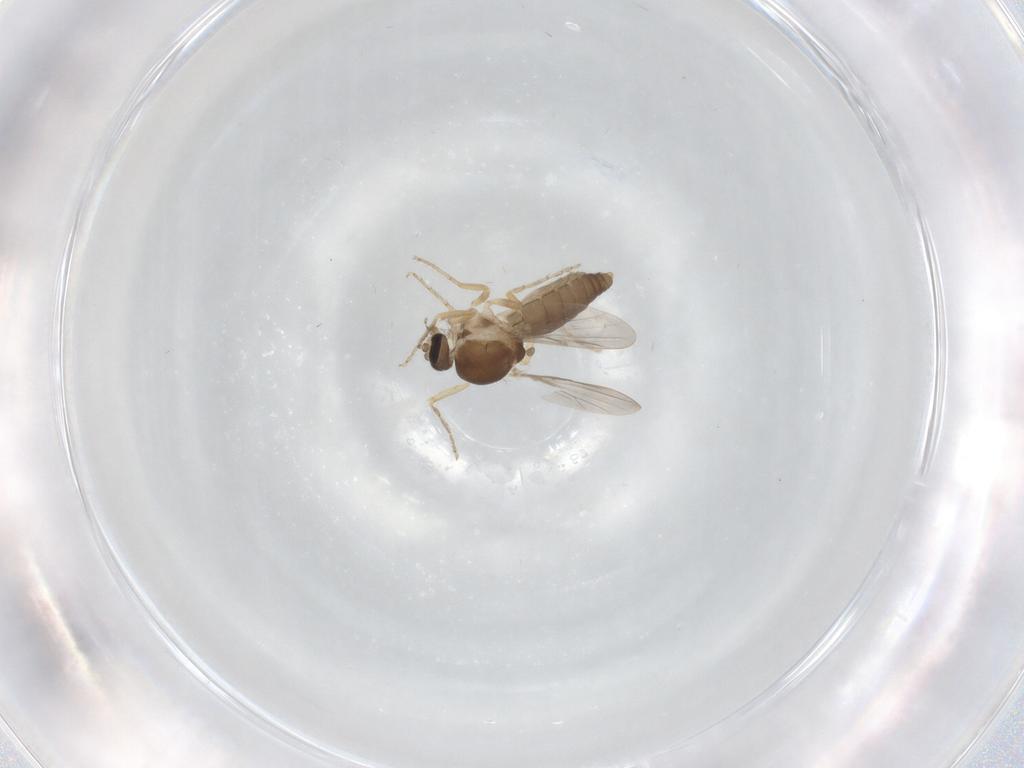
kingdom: Animalia
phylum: Arthropoda
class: Insecta
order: Diptera
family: Ceratopogonidae
